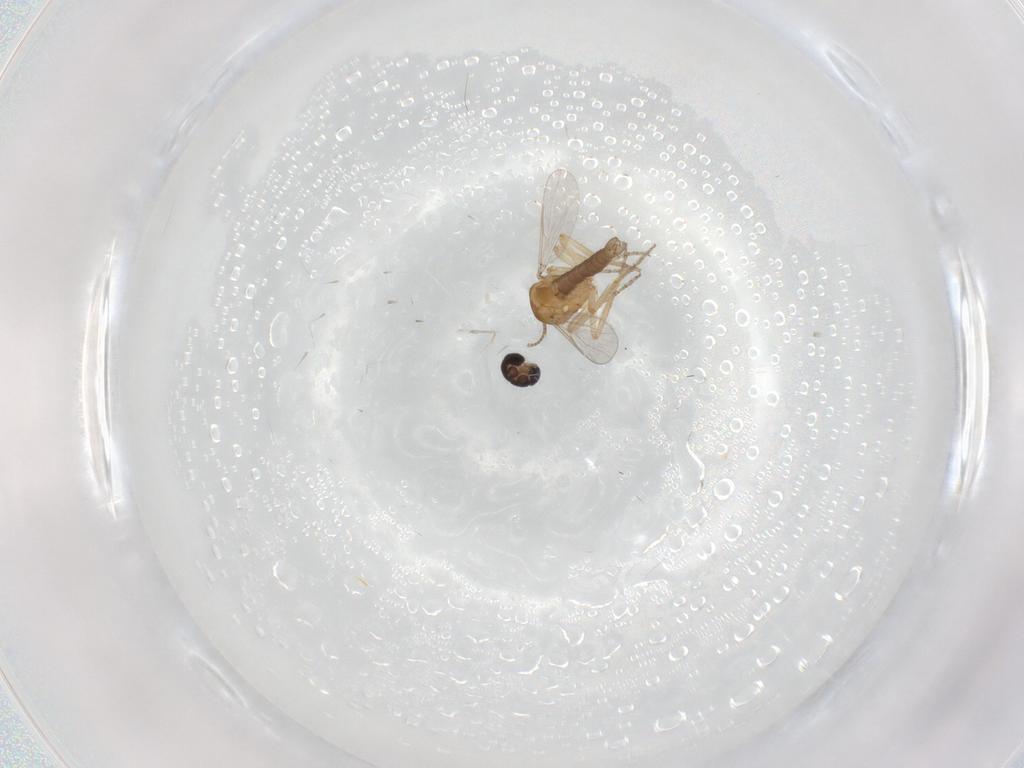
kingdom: Animalia
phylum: Arthropoda
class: Insecta
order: Diptera
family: Ceratopogonidae
